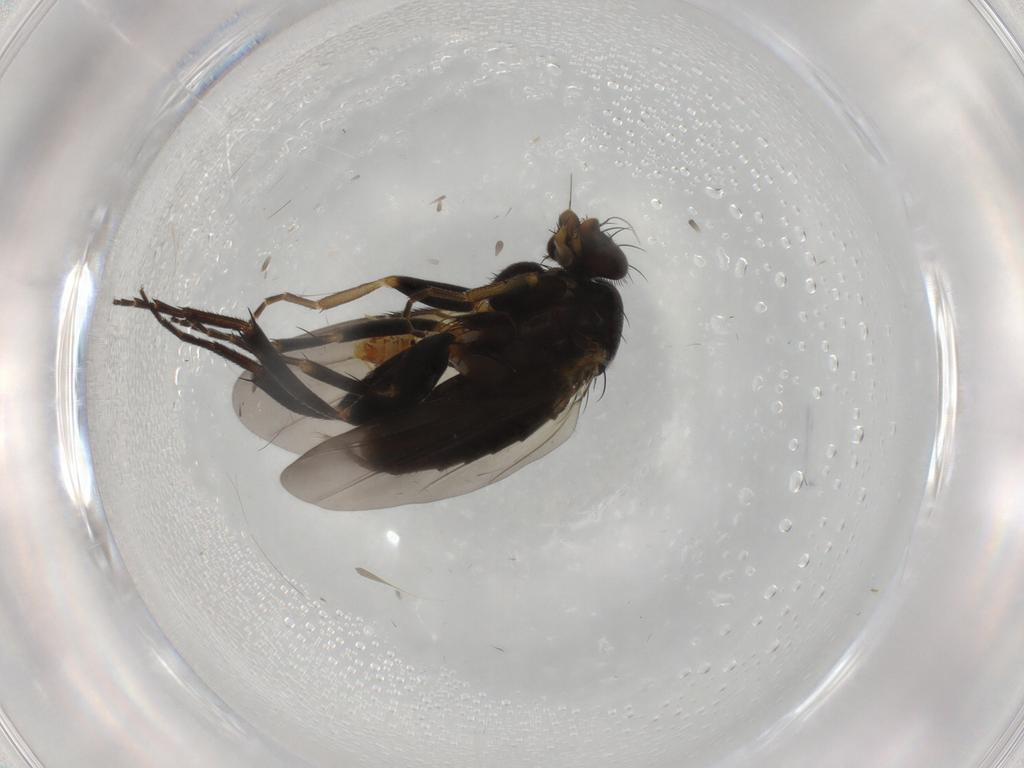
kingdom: Animalia
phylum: Arthropoda
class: Insecta
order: Diptera
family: Phoridae
